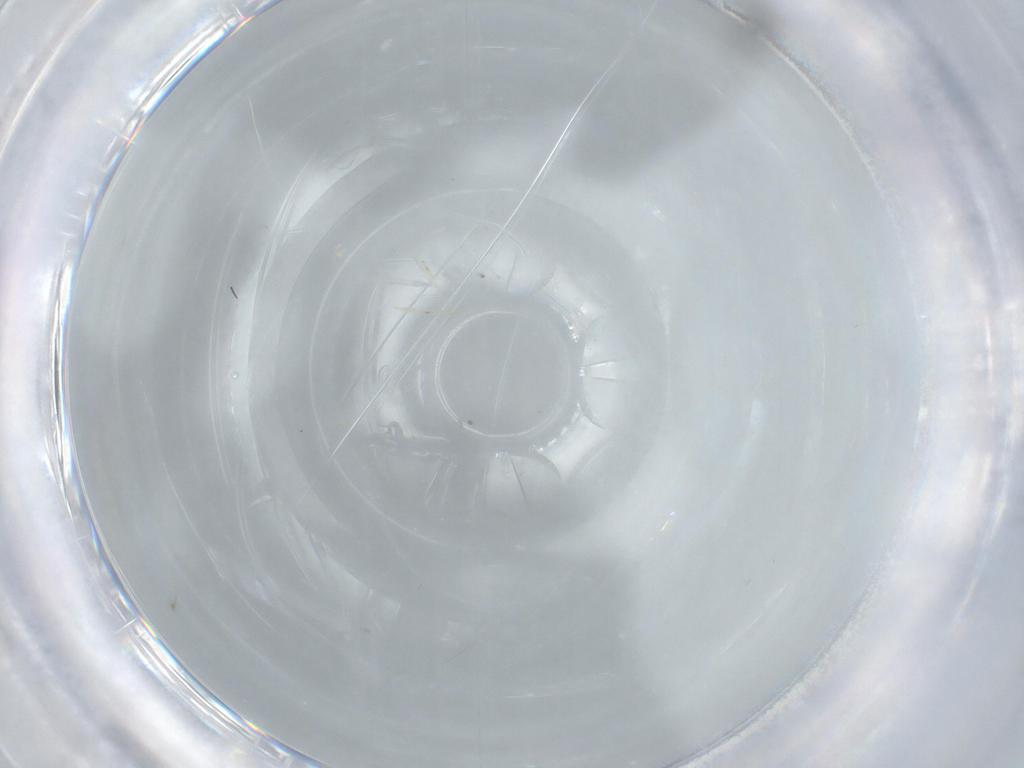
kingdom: Animalia
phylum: Arthropoda
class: Insecta
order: Diptera
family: Cecidomyiidae
